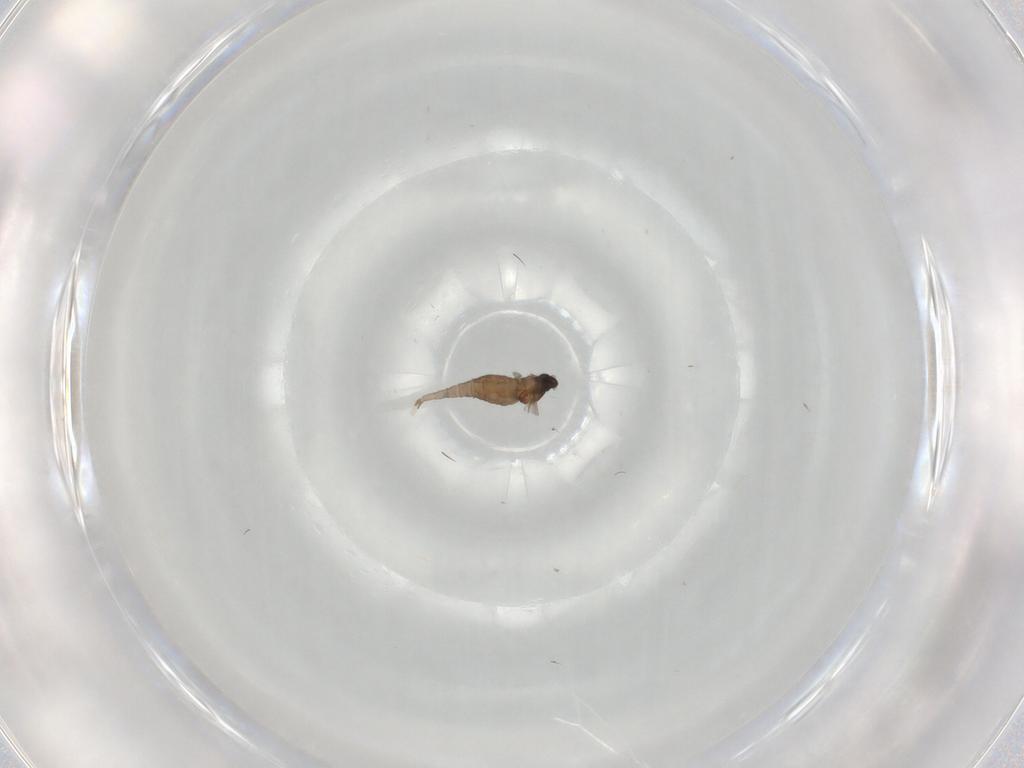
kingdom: Animalia
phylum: Arthropoda
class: Insecta
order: Diptera
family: Cecidomyiidae
